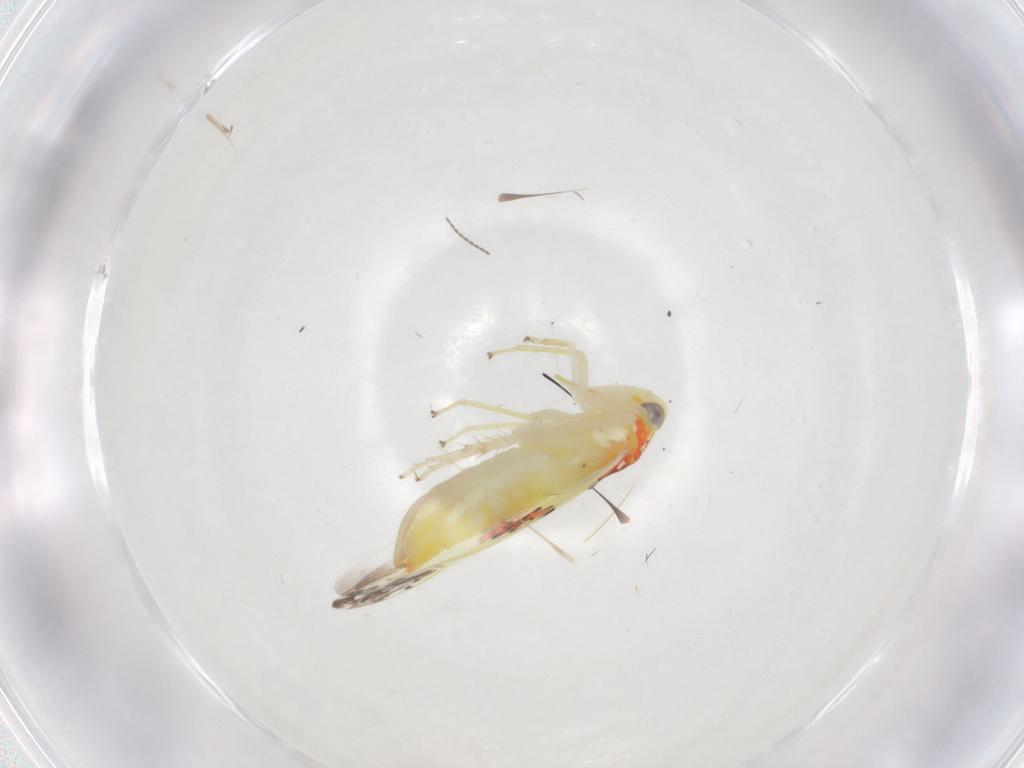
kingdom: Animalia
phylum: Arthropoda
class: Insecta
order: Hemiptera
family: Cicadellidae
